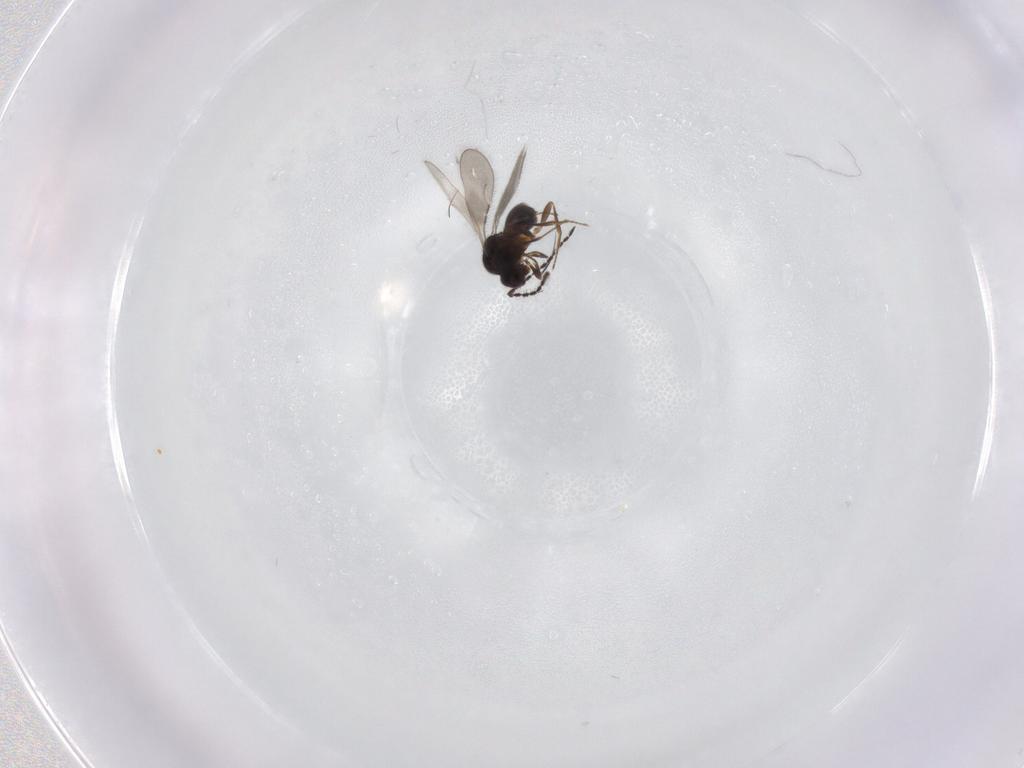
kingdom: Animalia
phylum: Arthropoda
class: Insecta
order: Hymenoptera
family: Ceraphronidae
